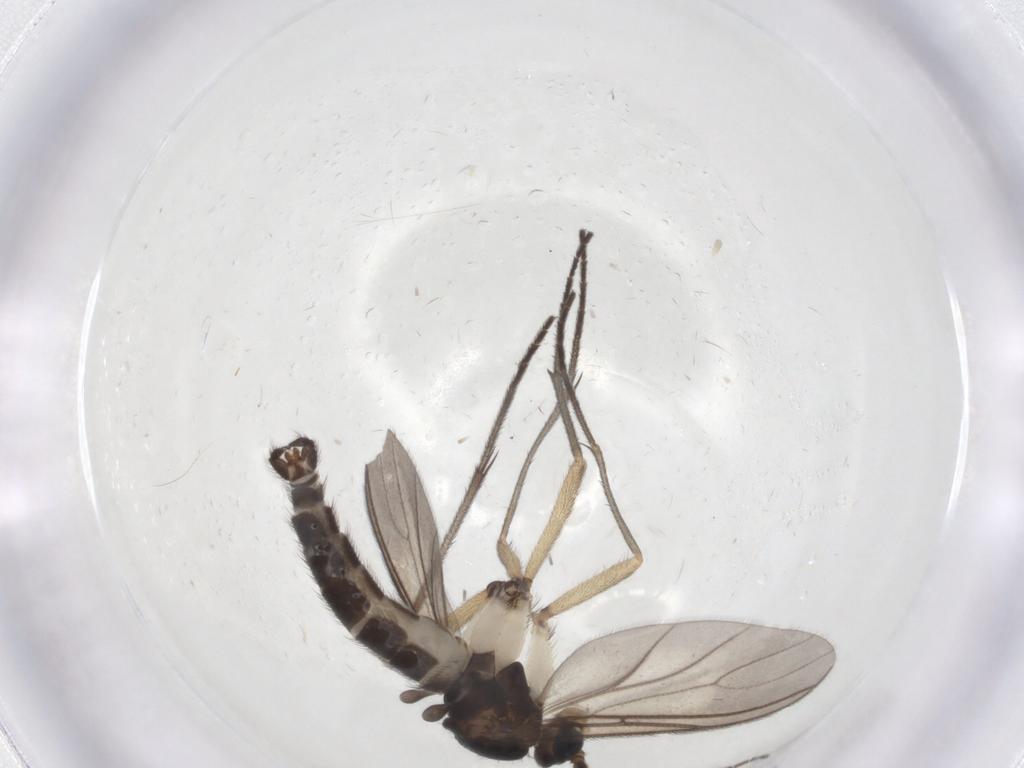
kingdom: Animalia
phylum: Arthropoda
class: Insecta
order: Diptera
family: Sciaridae
